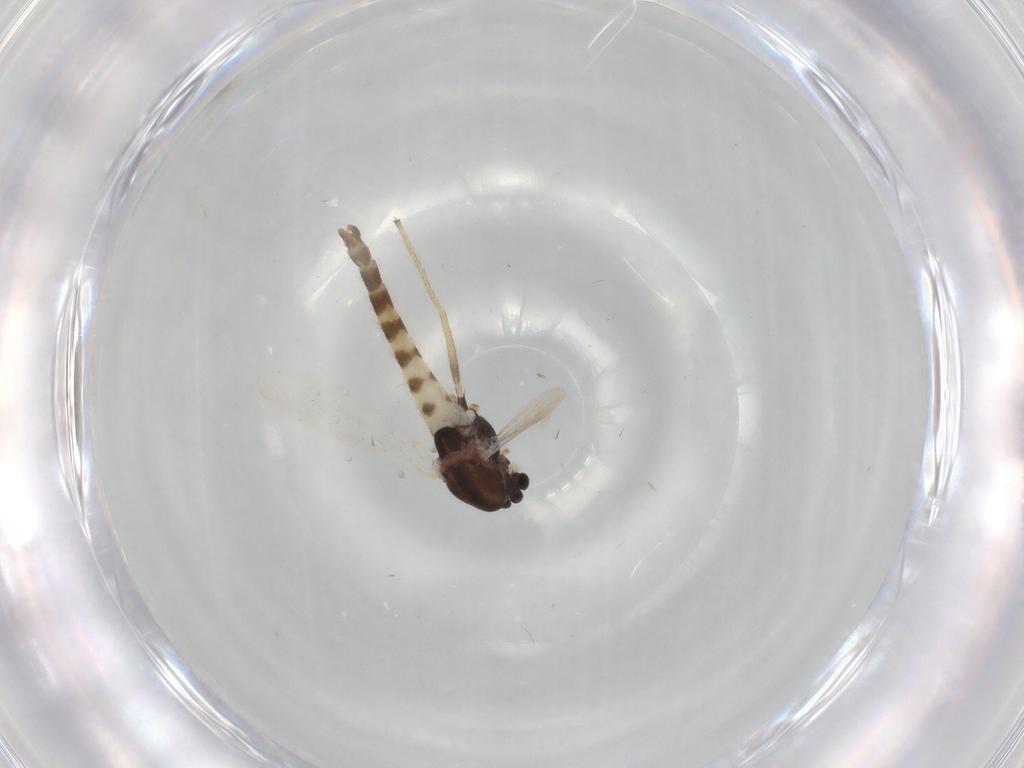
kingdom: Animalia
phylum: Arthropoda
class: Insecta
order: Diptera
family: Chironomidae
